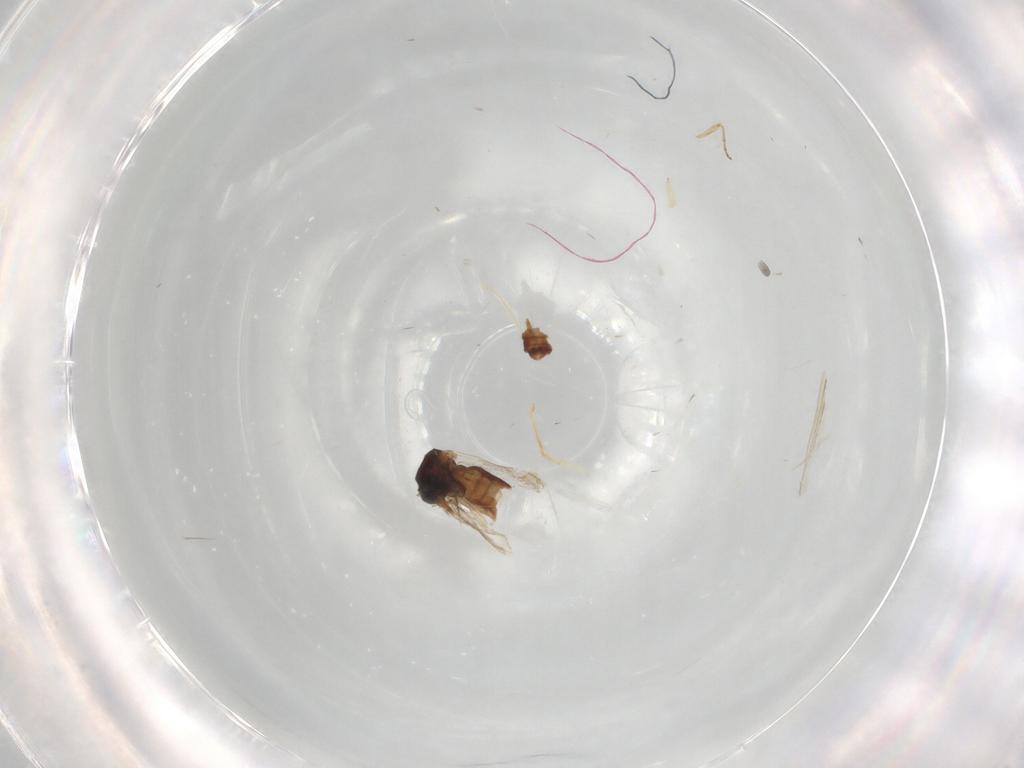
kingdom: Animalia
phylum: Arthropoda
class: Insecta
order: Diptera
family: Ceratopogonidae
